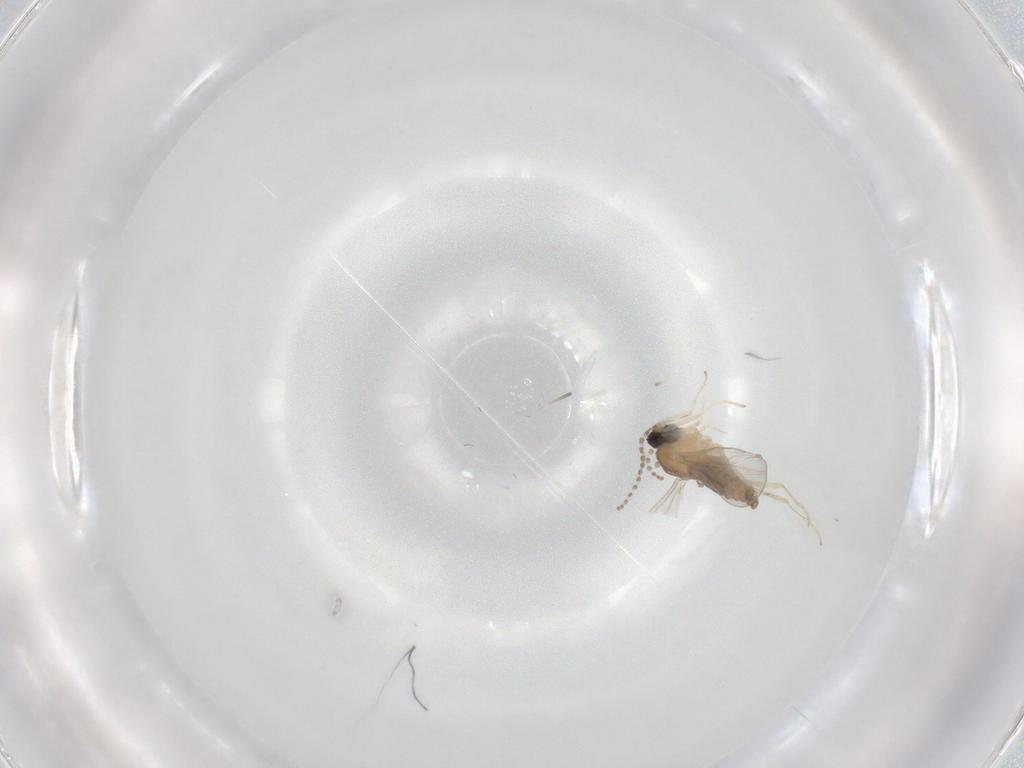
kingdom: Animalia
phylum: Arthropoda
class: Insecta
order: Diptera
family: Cecidomyiidae
